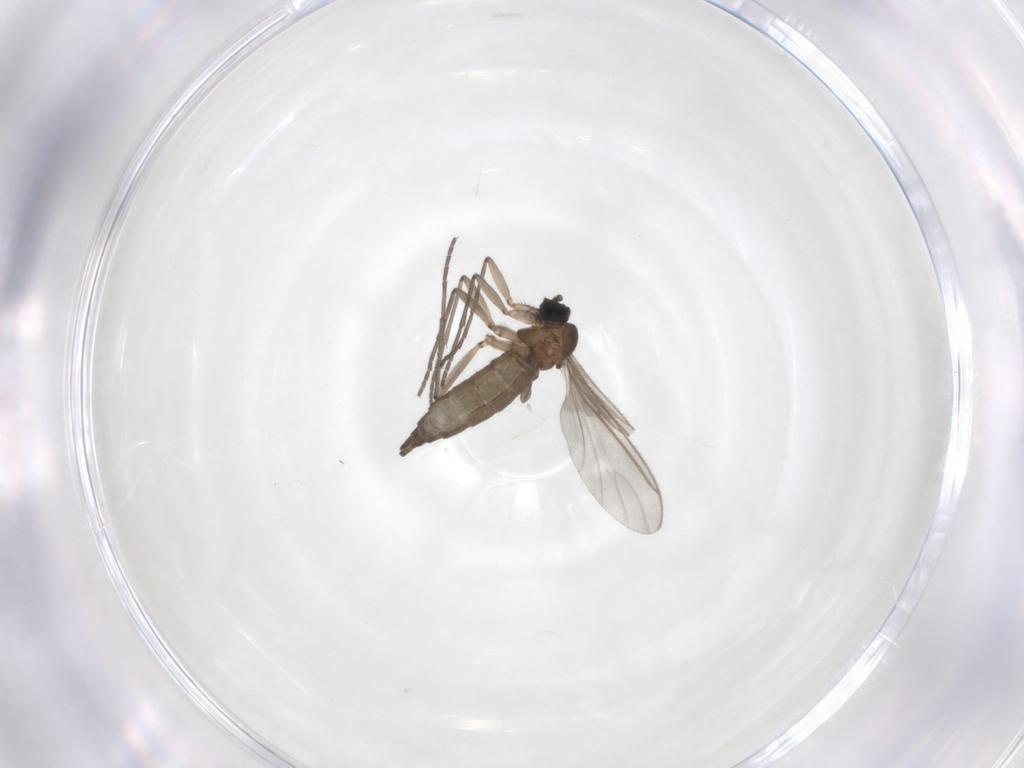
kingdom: Animalia
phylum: Arthropoda
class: Insecta
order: Diptera
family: Sciaridae
